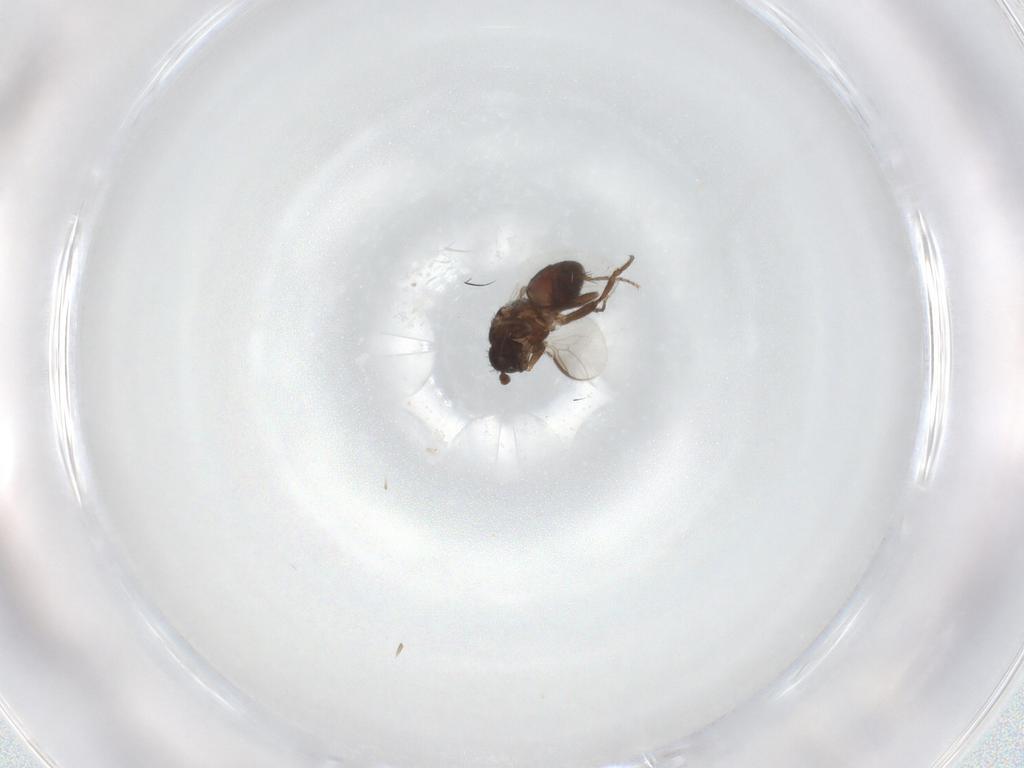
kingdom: Animalia
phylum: Arthropoda
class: Insecta
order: Diptera
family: Sphaeroceridae
